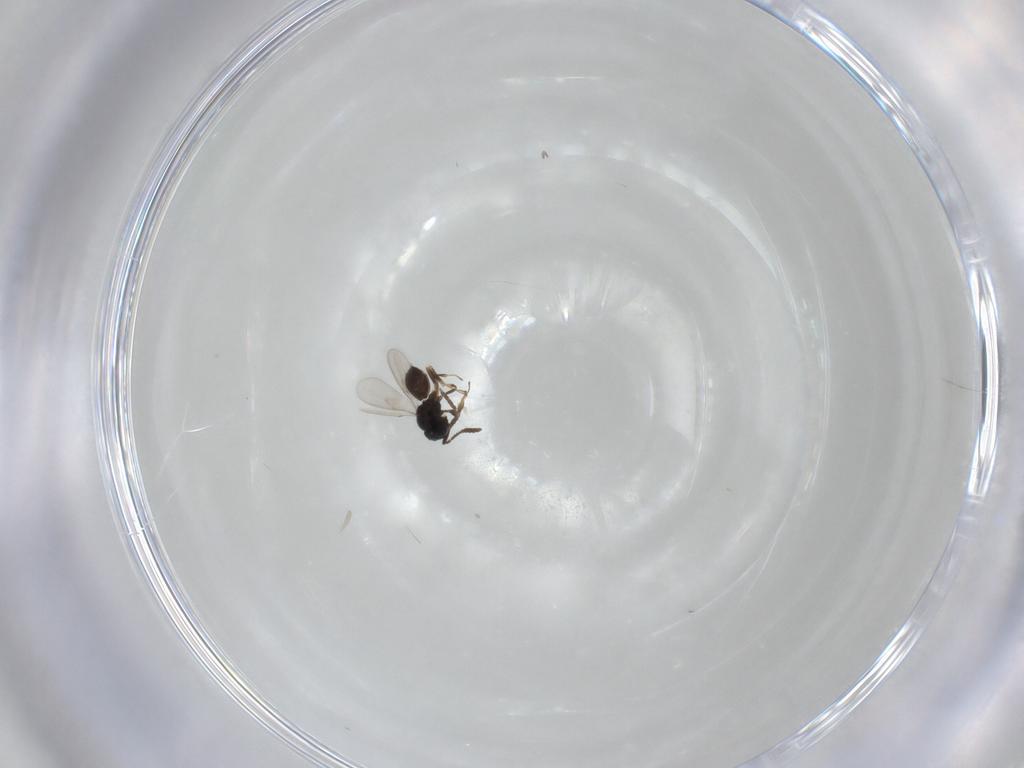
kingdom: Animalia
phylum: Arthropoda
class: Insecta
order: Hymenoptera
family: Scelionidae
